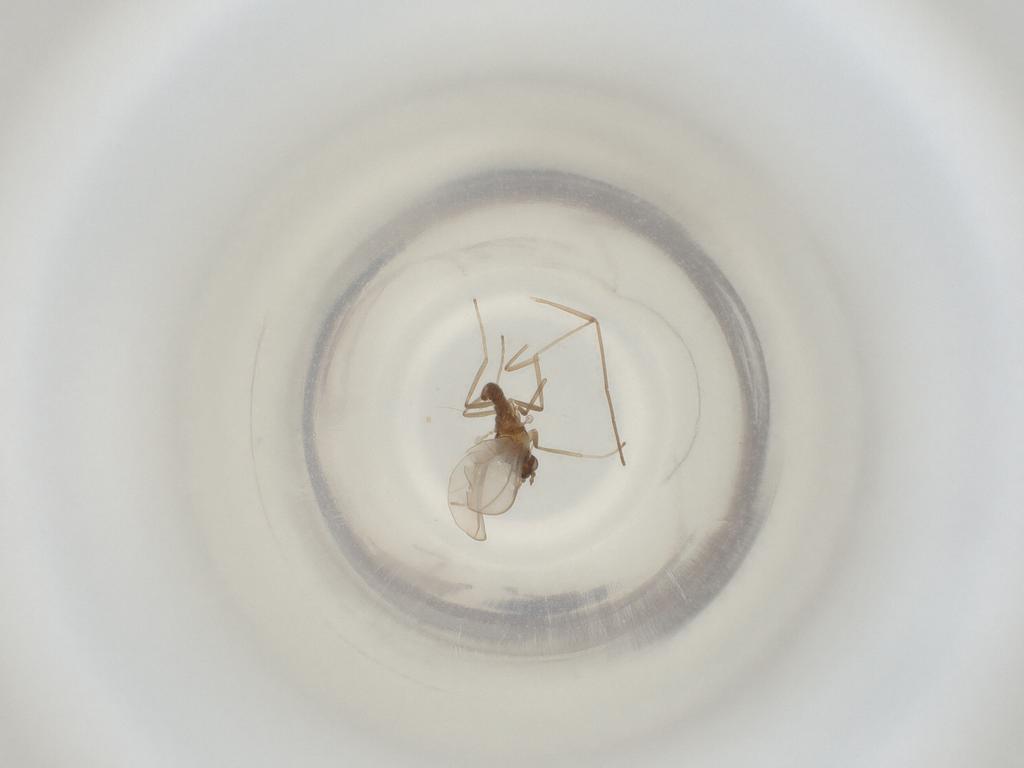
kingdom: Animalia
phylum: Arthropoda
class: Insecta
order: Diptera
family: Cecidomyiidae
